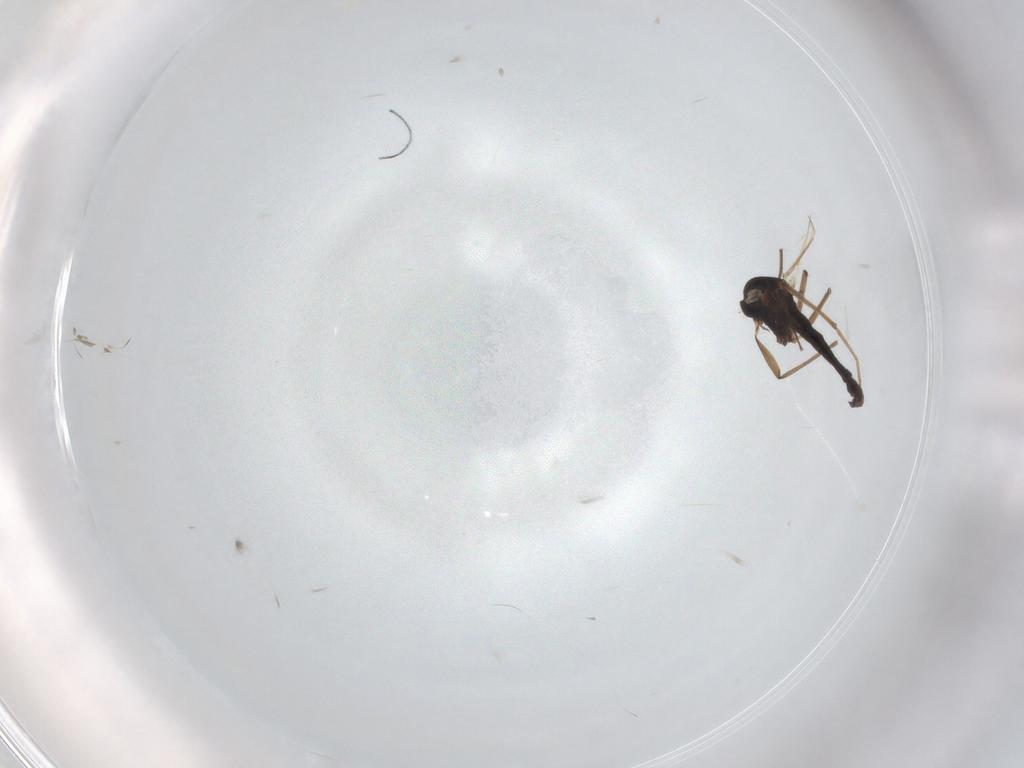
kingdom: Animalia
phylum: Arthropoda
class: Insecta
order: Diptera
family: Chironomidae
